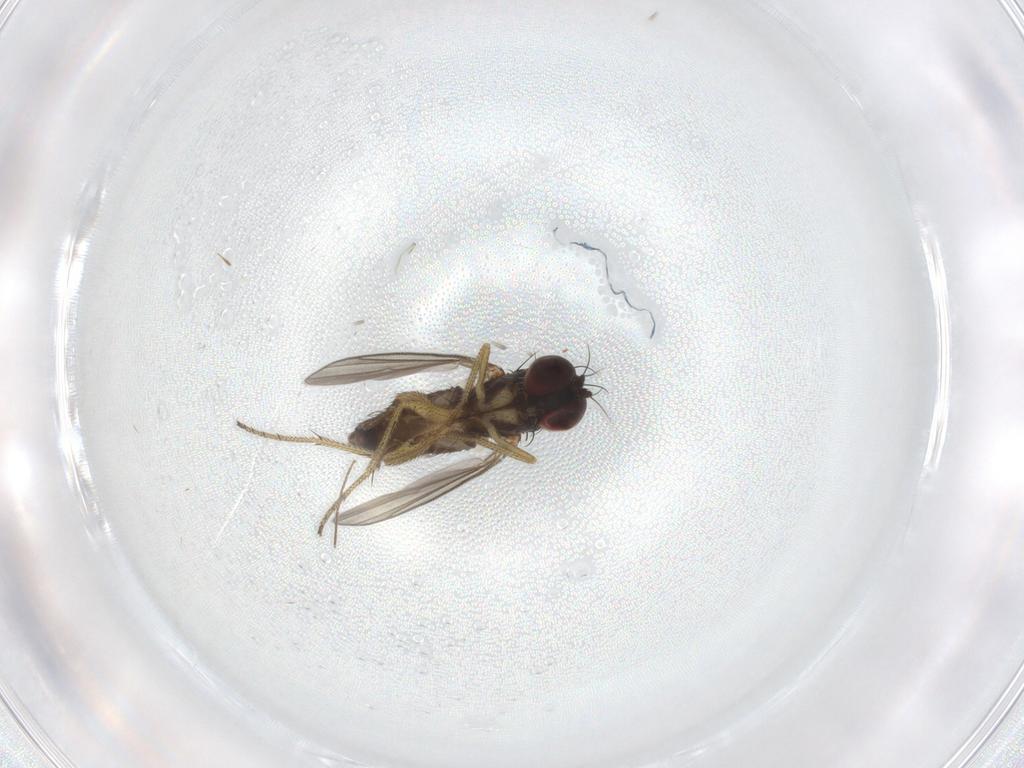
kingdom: Animalia
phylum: Arthropoda
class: Insecta
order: Diptera
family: Dolichopodidae
